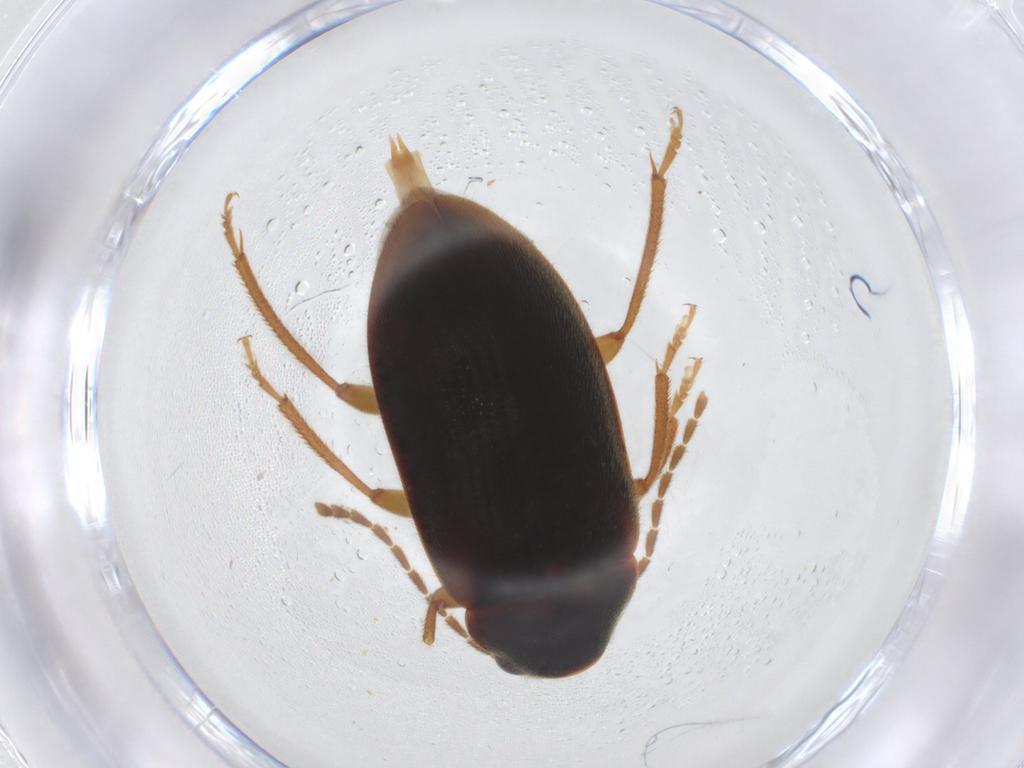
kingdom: Animalia
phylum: Arthropoda
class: Insecta
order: Coleoptera
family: Ptilodactylidae
